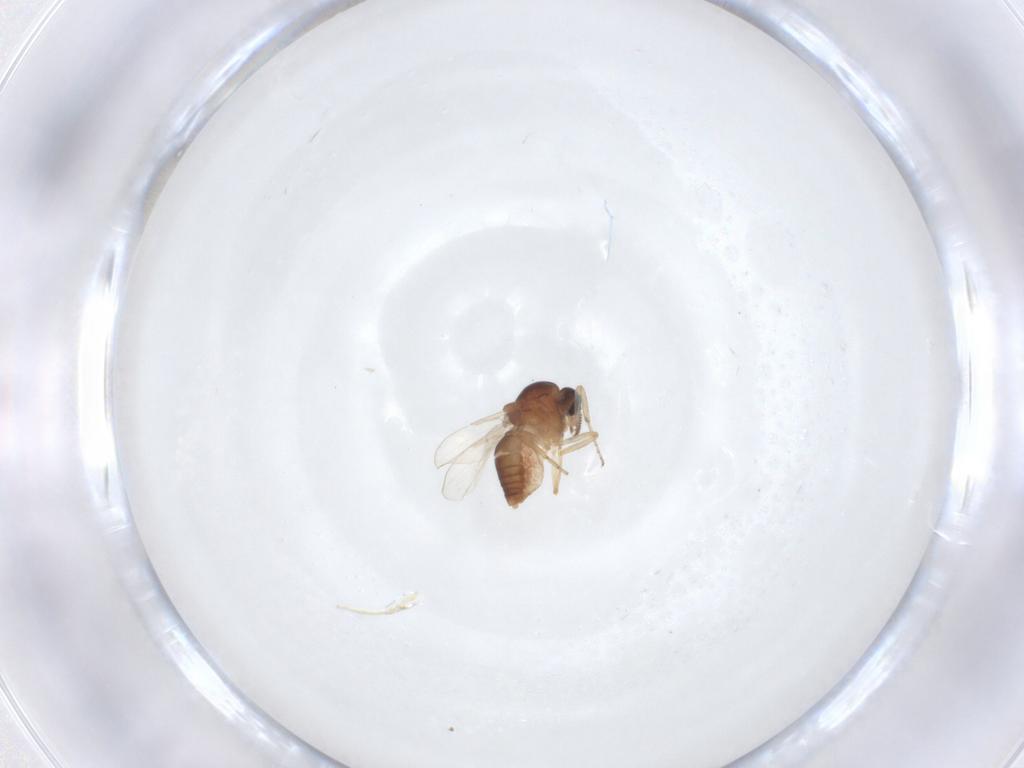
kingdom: Animalia
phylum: Arthropoda
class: Insecta
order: Diptera
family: Ceratopogonidae
